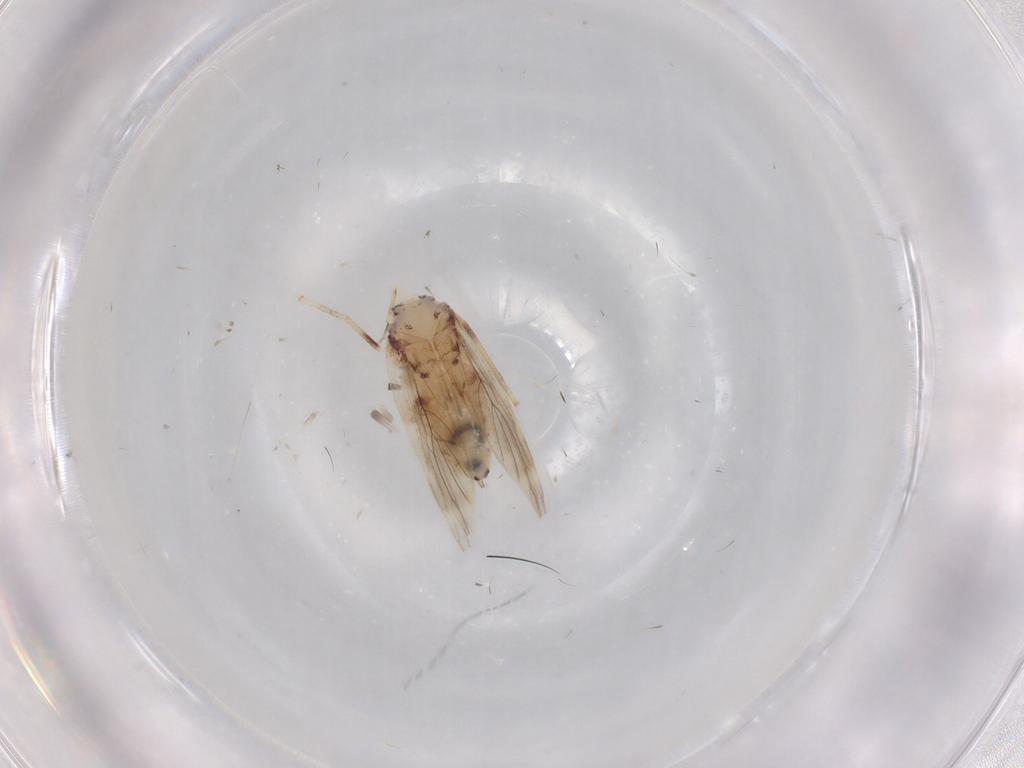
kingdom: Animalia
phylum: Arthropoda
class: Insecta
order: Psocodea
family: Lepidopsocidae
